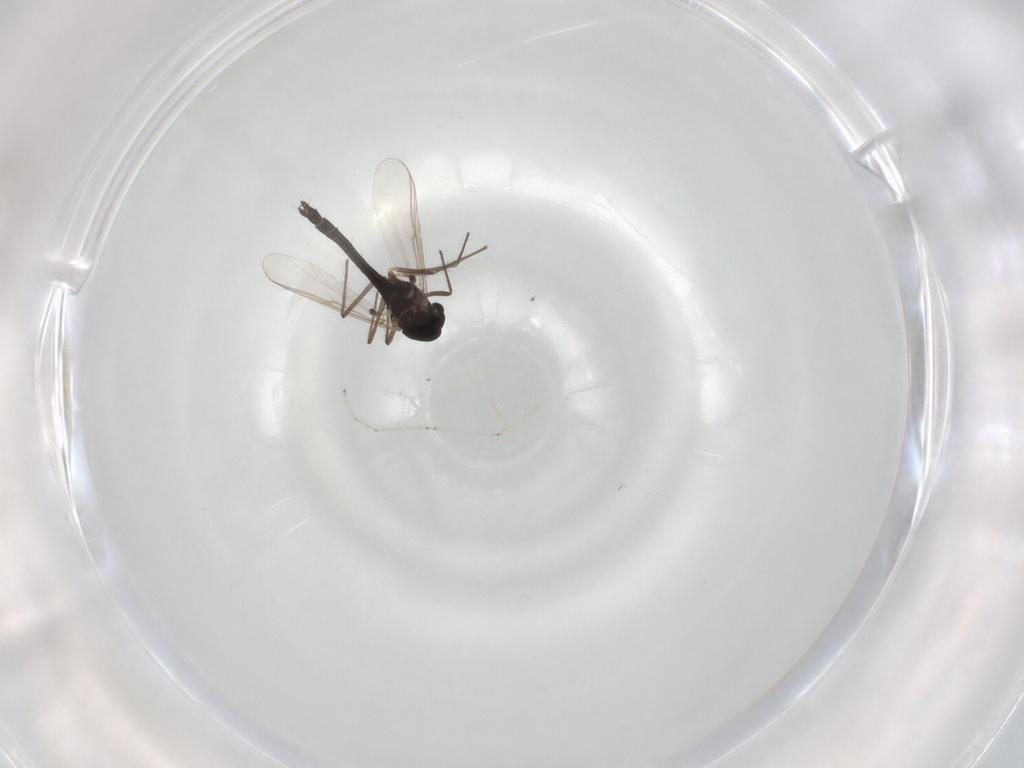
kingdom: Animalia
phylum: Arthropoda
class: Insecta
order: Diptera
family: Chironomidae
